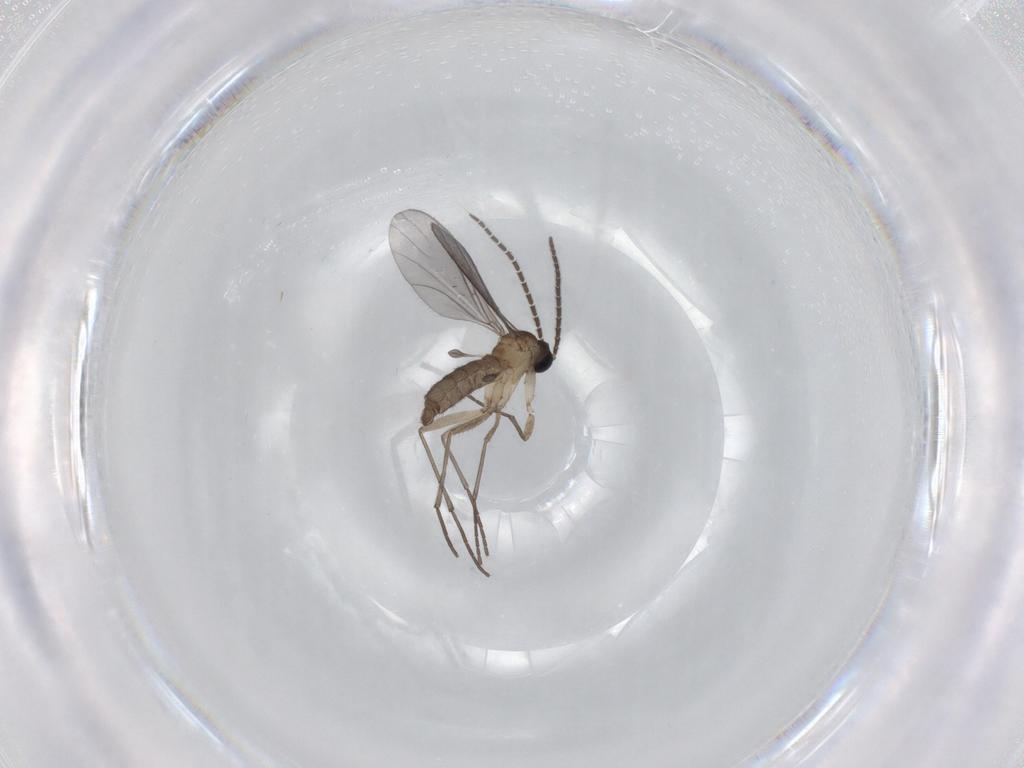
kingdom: Animalia
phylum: Arthropoda
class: Insecta
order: Diptera
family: Sciaridae
